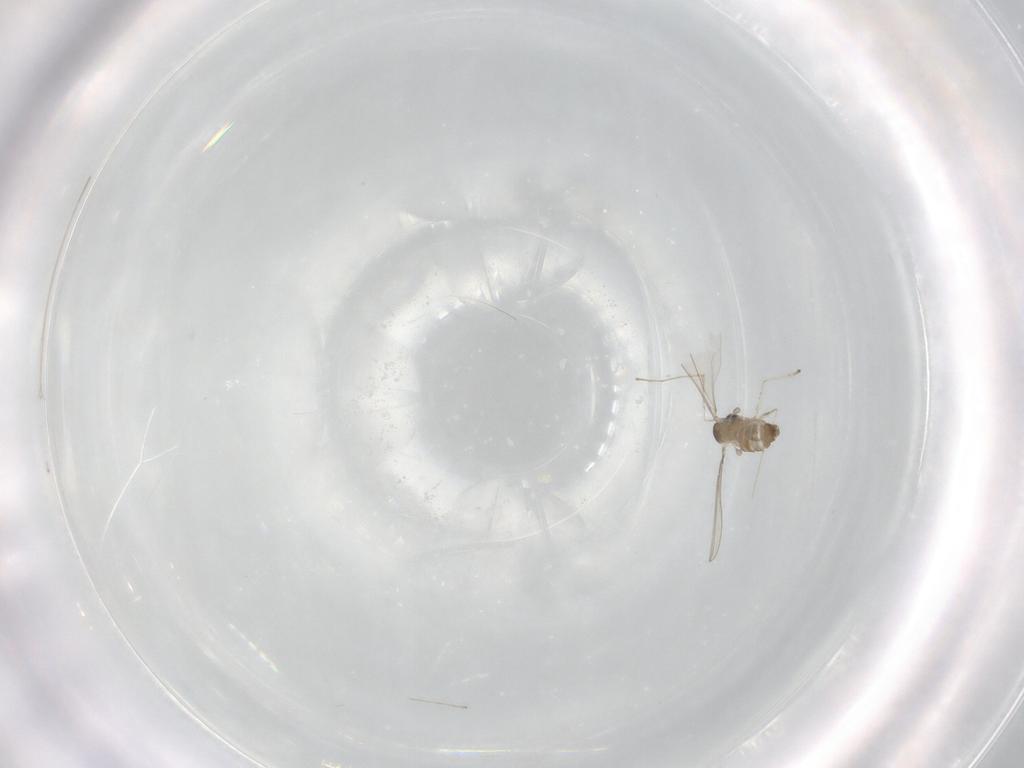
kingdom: Animalia
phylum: Arthropoda
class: Insecta
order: Diptera
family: Cecidomyiidae
